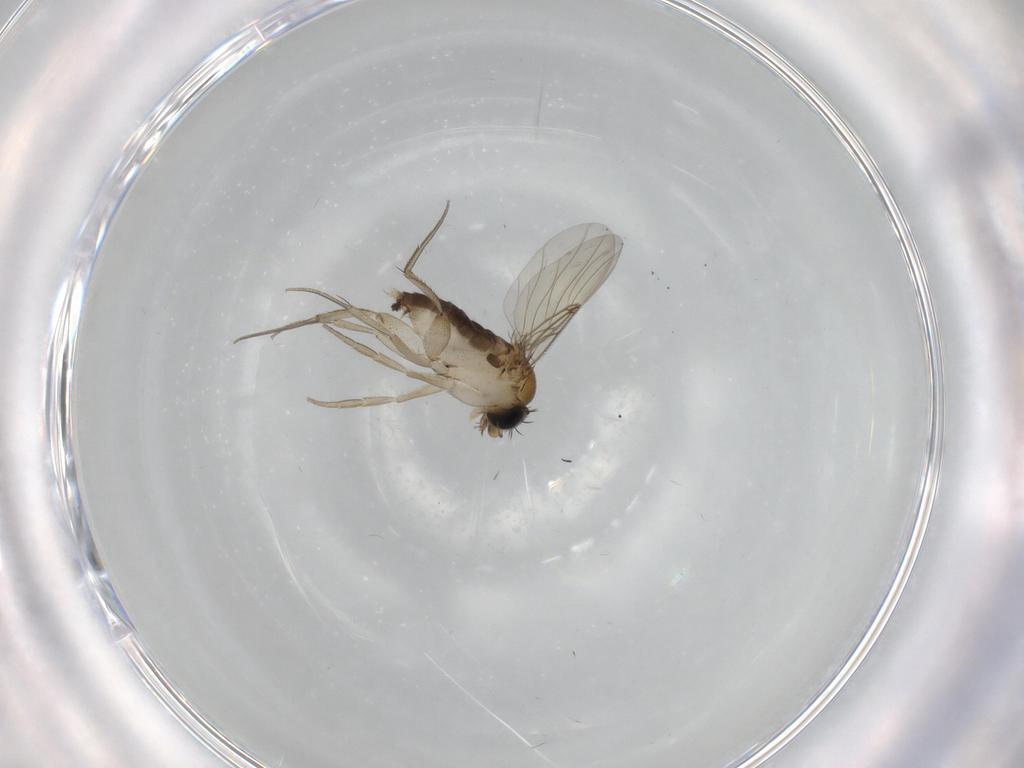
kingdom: Animalia
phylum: Arthropoda
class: Insecta
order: Diptera
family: Phoridae
